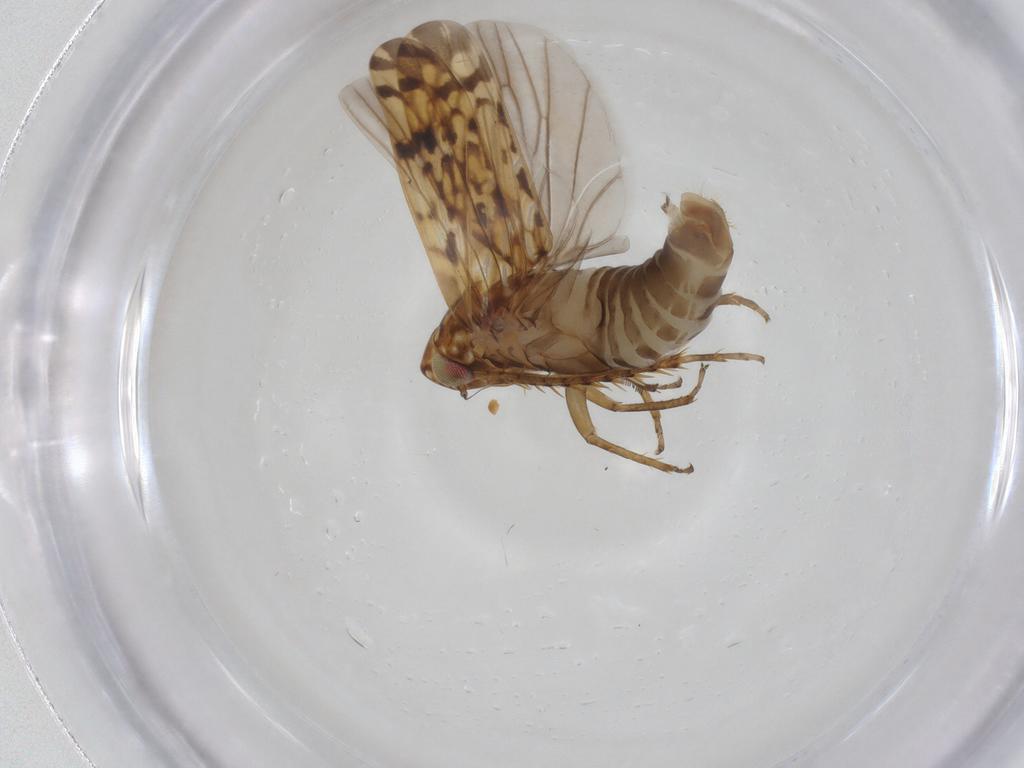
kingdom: Animalia
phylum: Arthropoda
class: Insecta
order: Hemiptera
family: Cicadellidae
